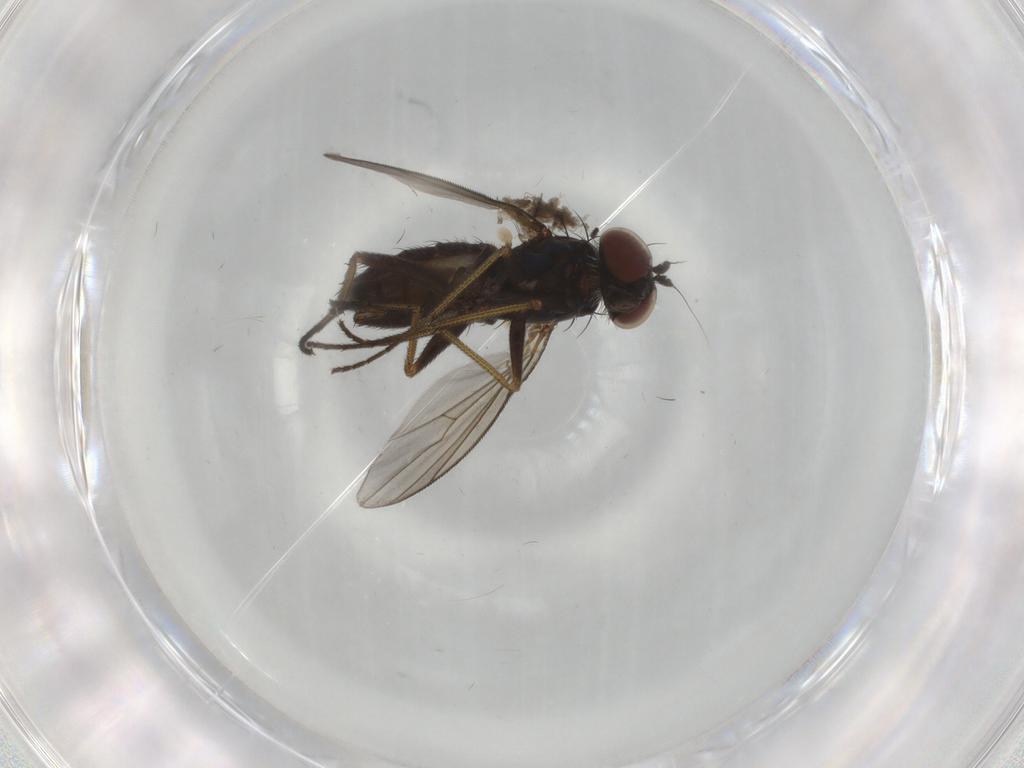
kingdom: Animalia
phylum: Arthropoda
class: Insecta
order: Diptera
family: Dolichopodidae
